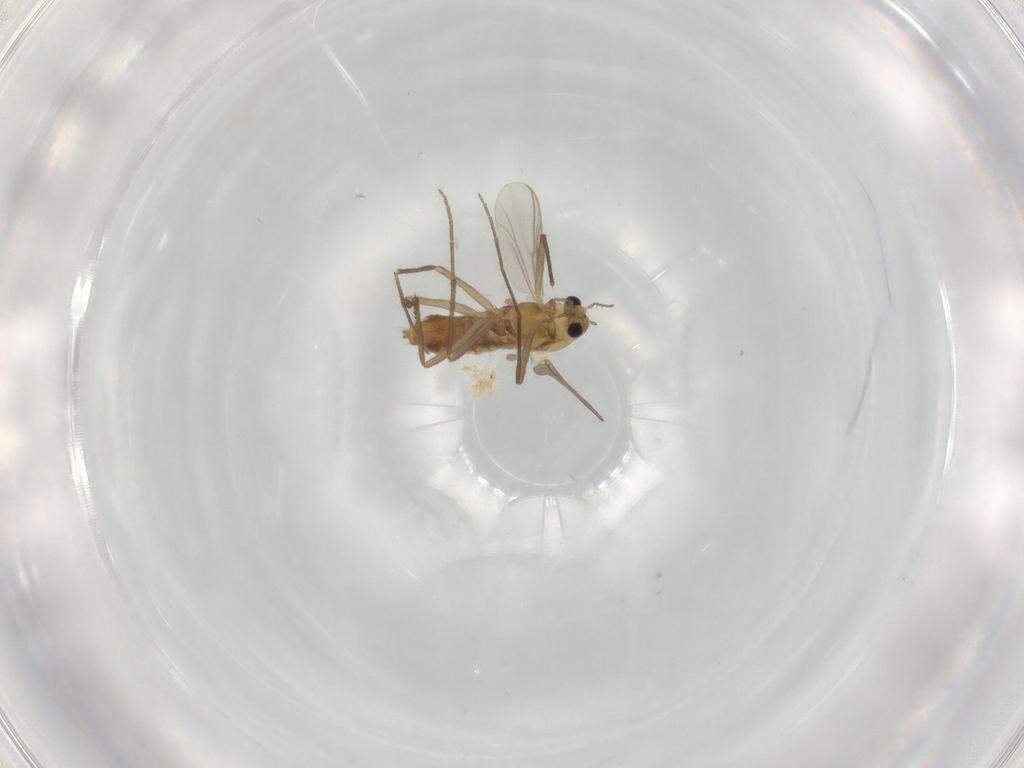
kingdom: Animalia
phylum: Arthropoda
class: Insecta
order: Diptera
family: Chironomidae
